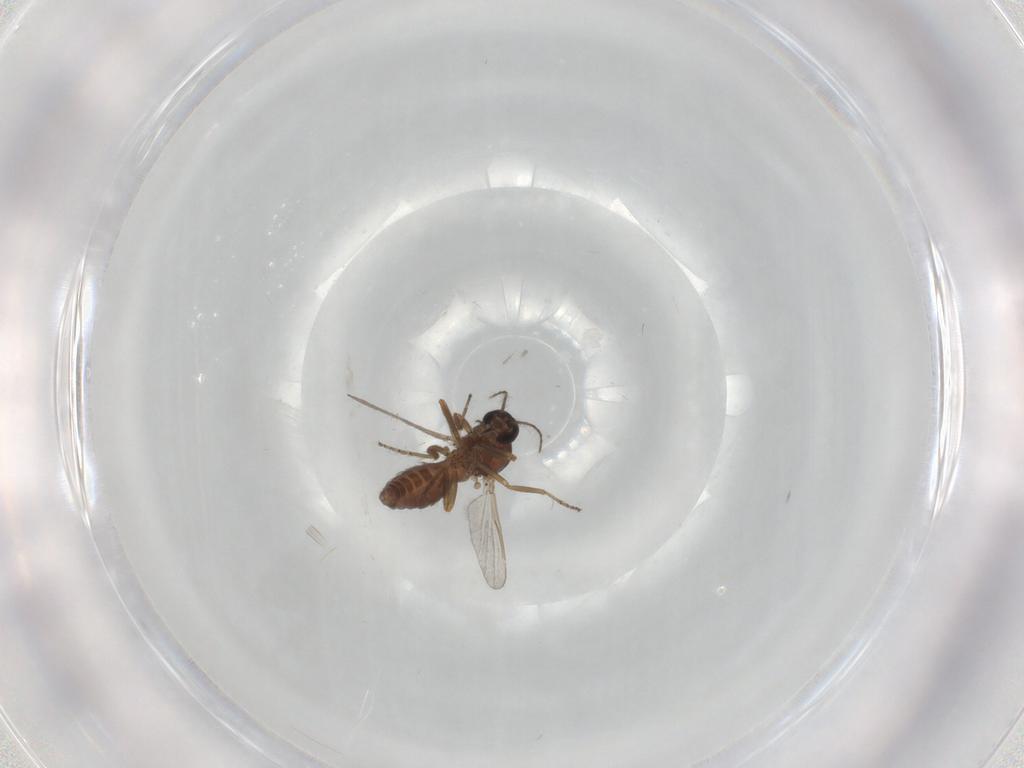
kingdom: Animalia
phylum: Arthropoda
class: Insecta
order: Diptera
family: Ceratopogonidae
